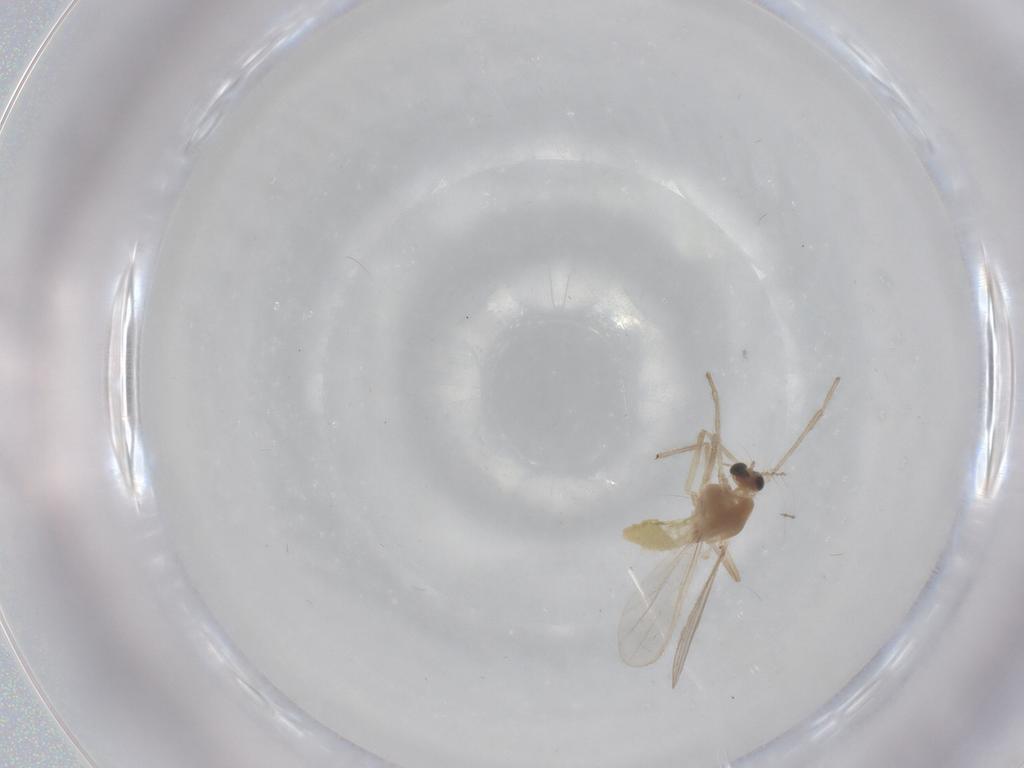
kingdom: Animalia
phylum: Arthropoda
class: Insecta
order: Diptera
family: Chironomidae
